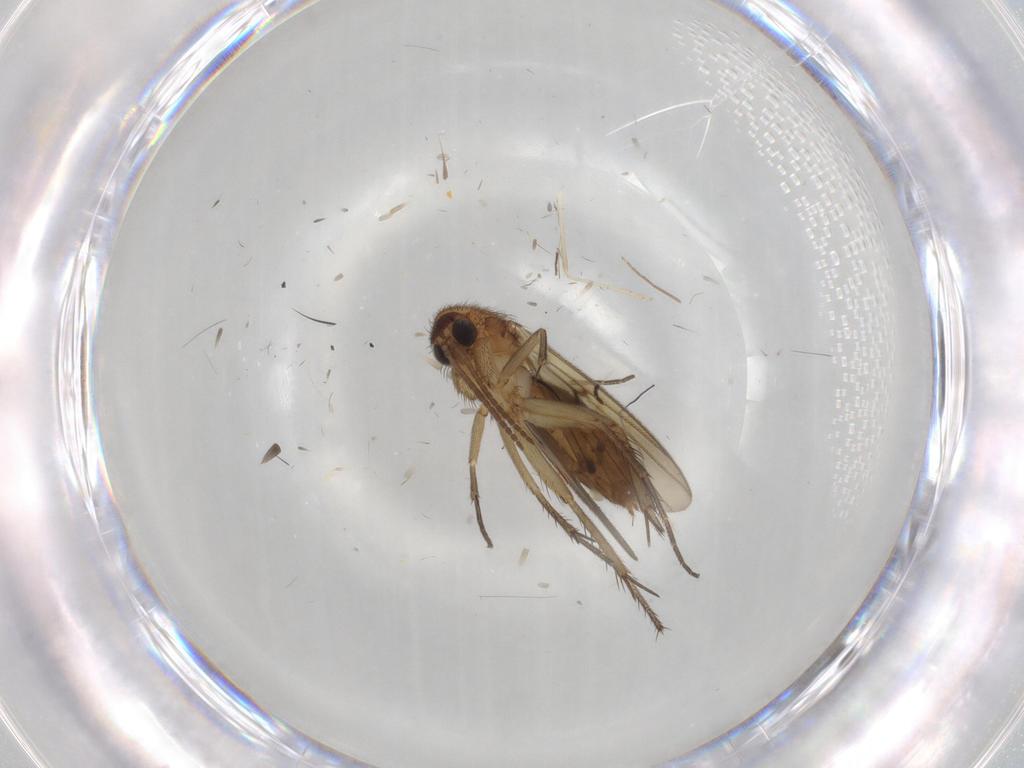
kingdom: Animalia
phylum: Arthropoda
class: Insecta
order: Diptera
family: Mycetophilidae
